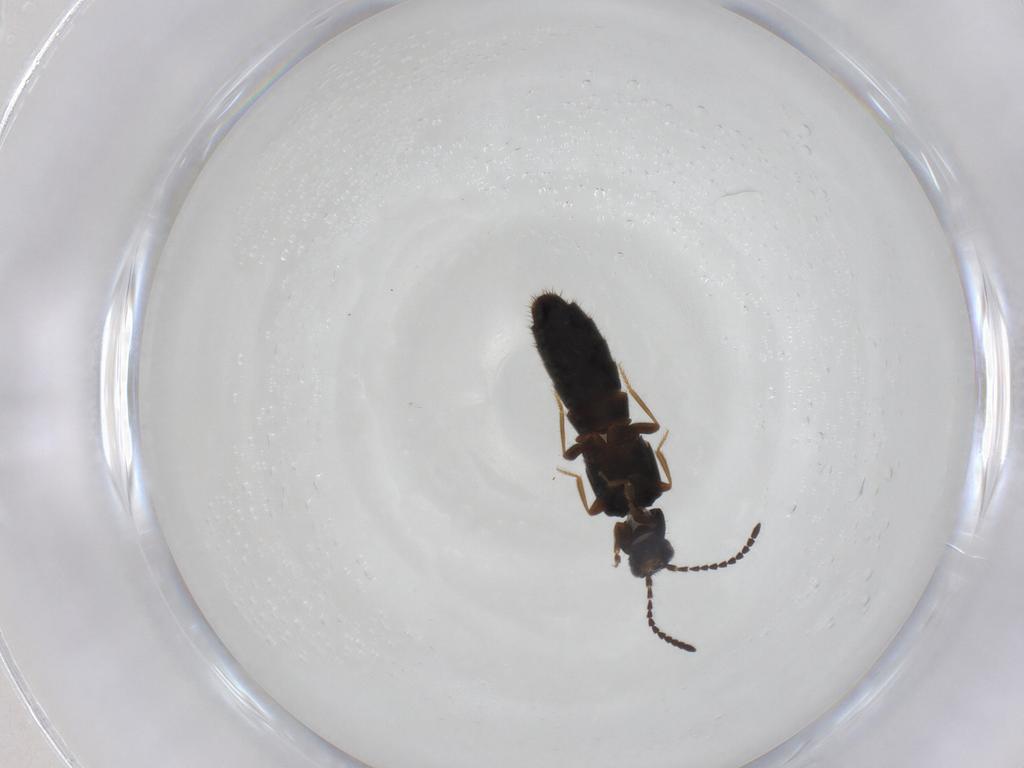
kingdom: Animalia
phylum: Arthropoda
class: Insecta
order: Coleoptera
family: Staphylinidae
